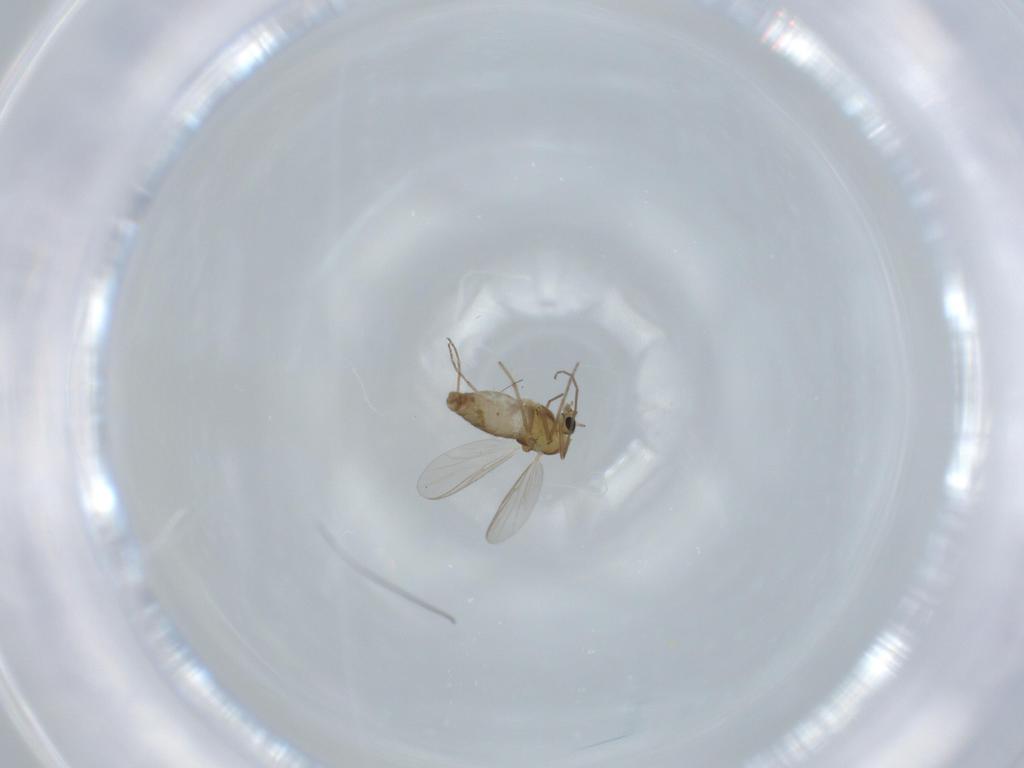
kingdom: Animalia
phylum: Arthropoda
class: Insecta
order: Diptera
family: Chironomidae
